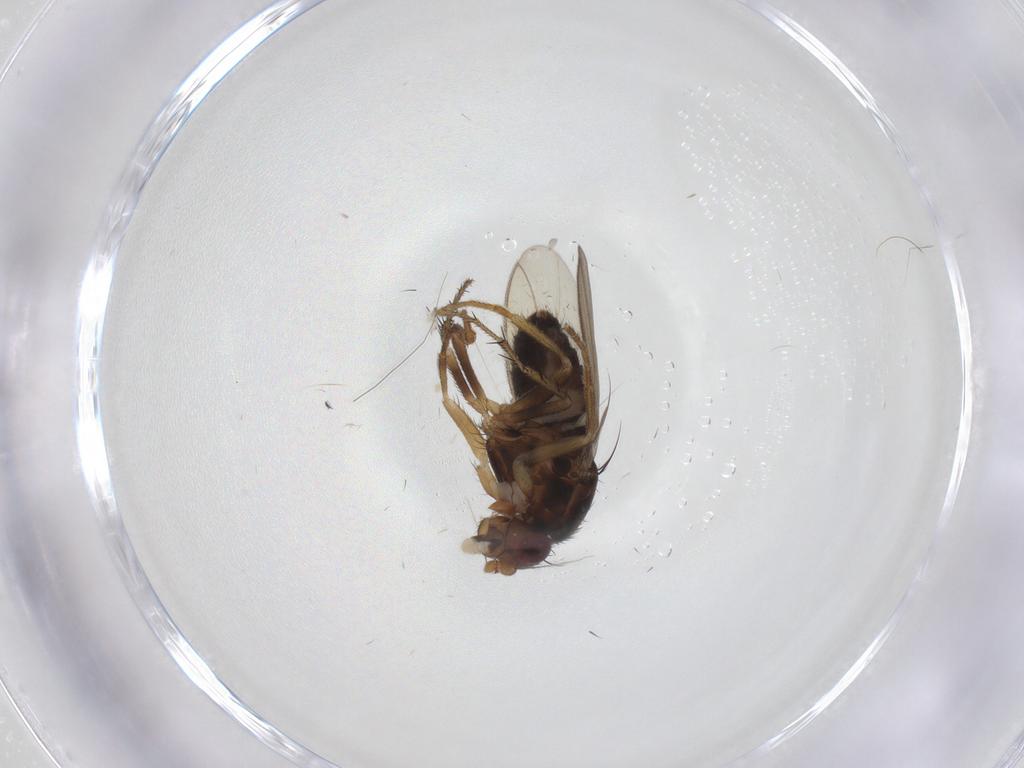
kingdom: Animalia
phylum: Arthropoda
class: Insecta
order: Diptera
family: Sphaeroceridae
